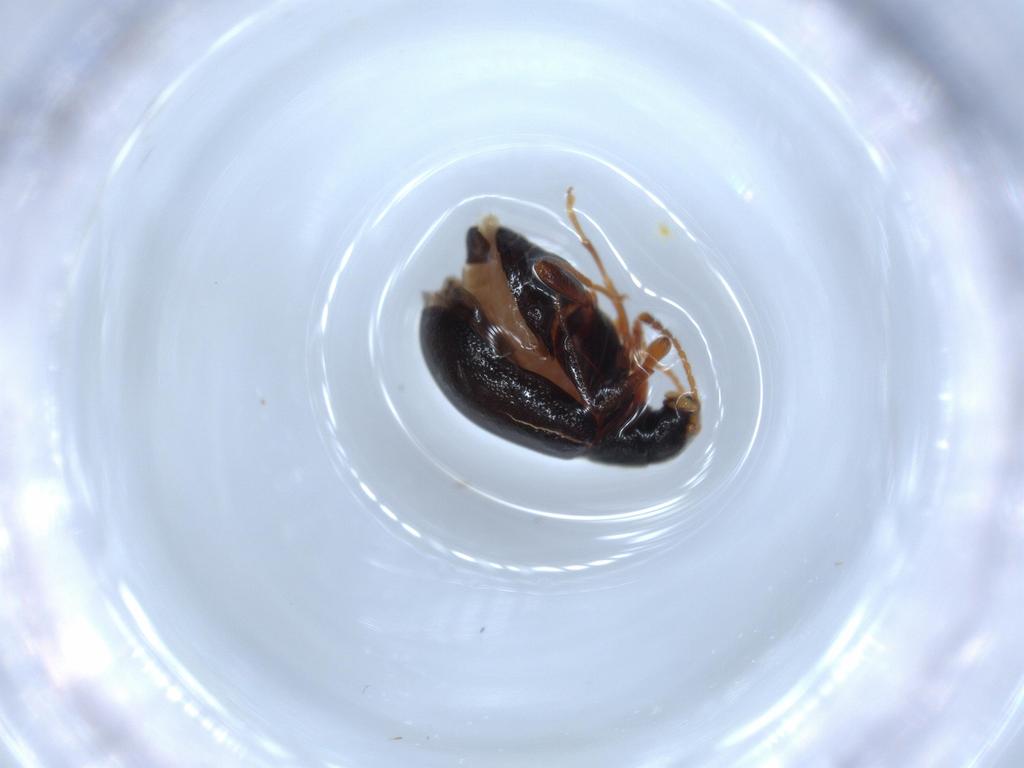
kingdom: Animalia
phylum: Arthropoda
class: Insecta
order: Coleoptera
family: Aderidae
